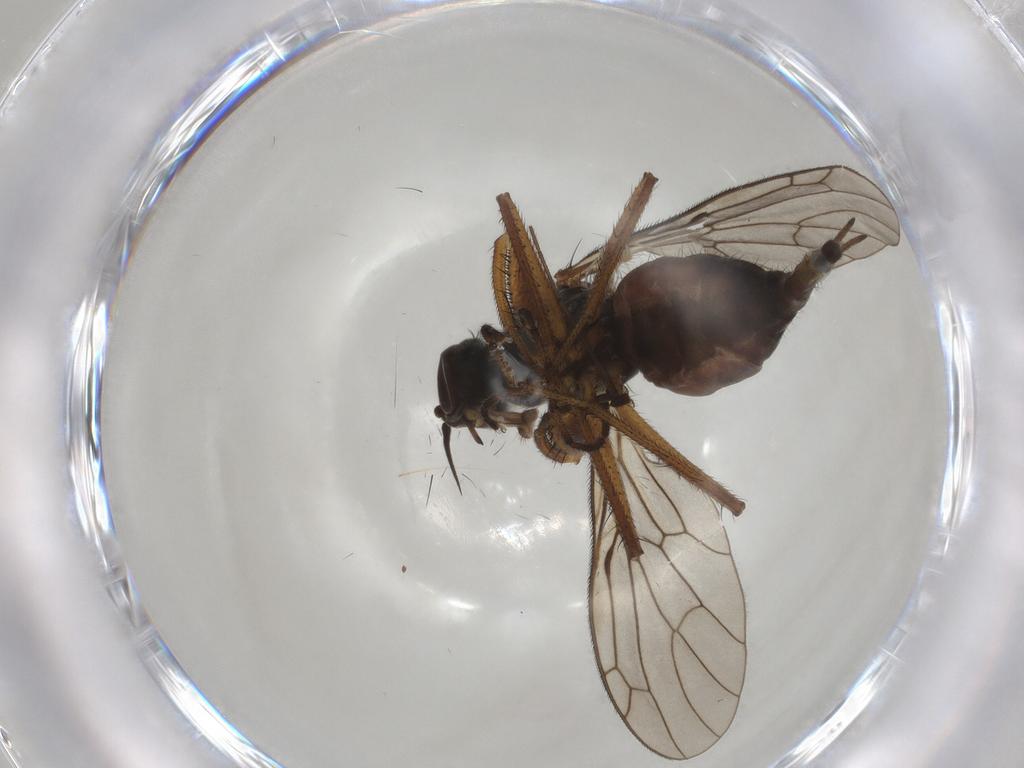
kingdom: Animalia
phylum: Arthropoda
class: Insecta
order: Diptera
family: Ceratopogonidae
